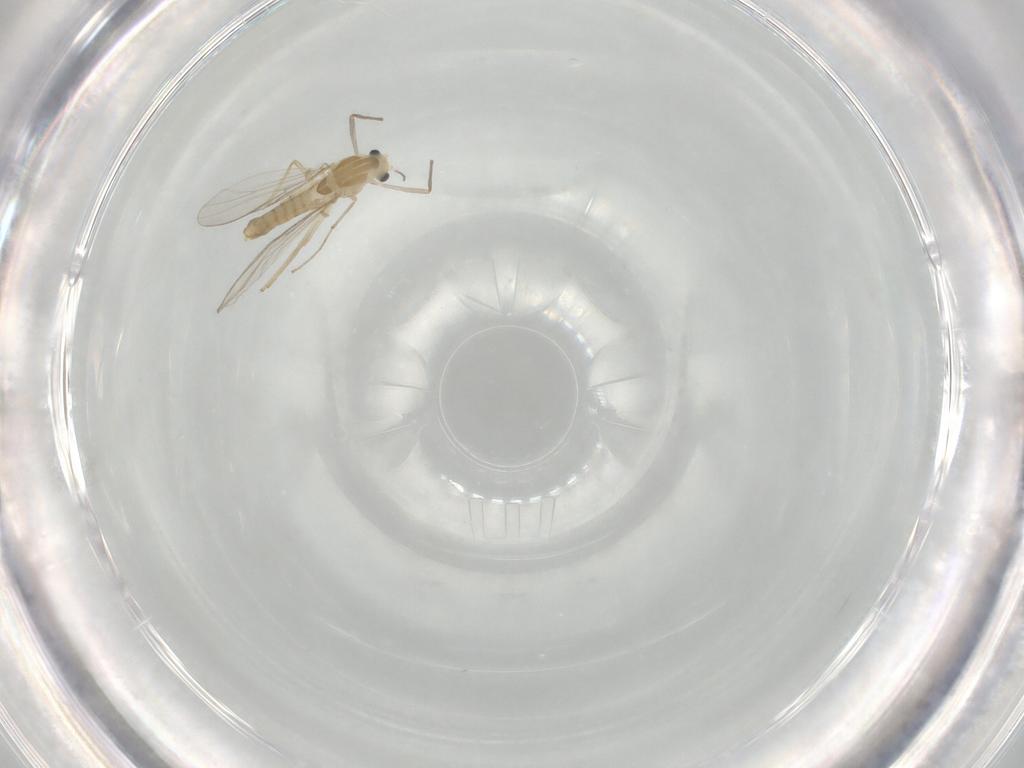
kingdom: Animalia
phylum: Arthropoda
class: Insecta
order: Diptera
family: Chironomidae
